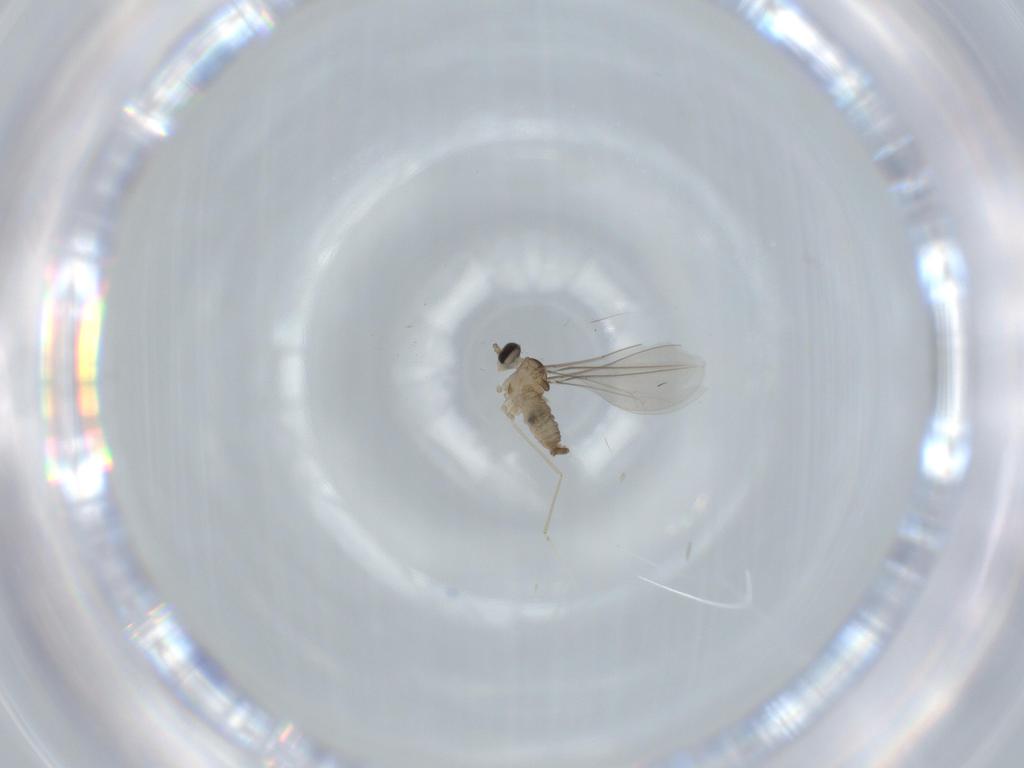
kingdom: Animalia
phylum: Arthropoda
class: Insecta
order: Diptera
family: Cecidomyiidae
